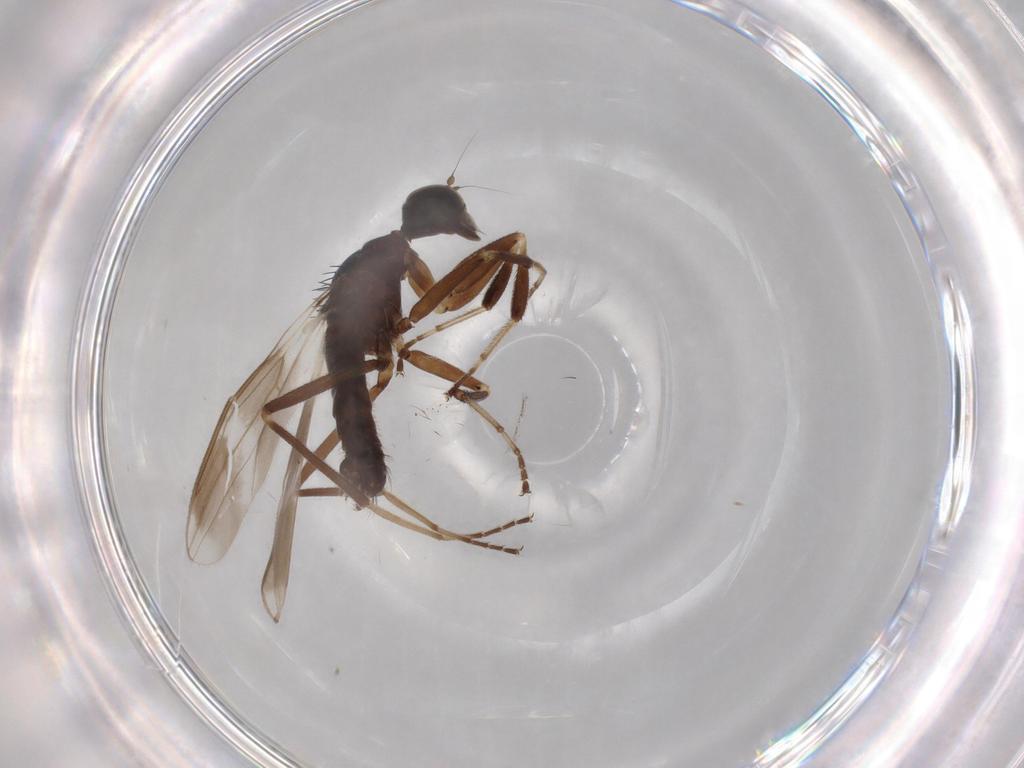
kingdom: Animalia
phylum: Arthropoda
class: Insecta
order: Diptera
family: Hybotidae
